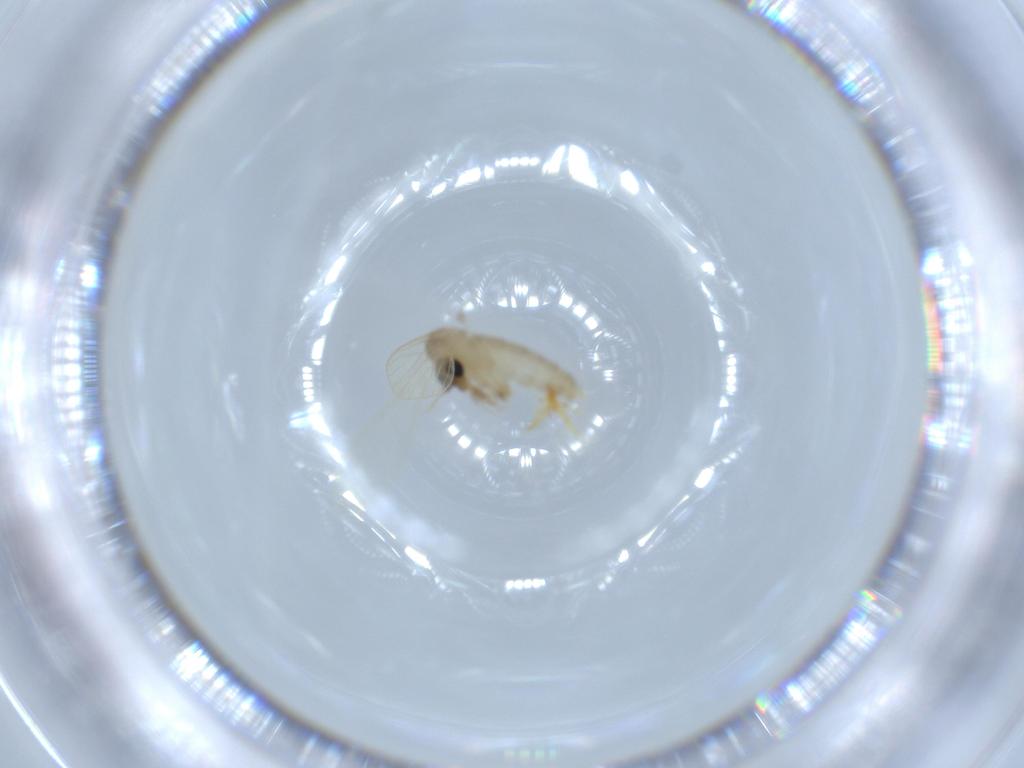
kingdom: Animalia
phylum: Arthropoda
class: Insecta
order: Diptera
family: Psychodidae
